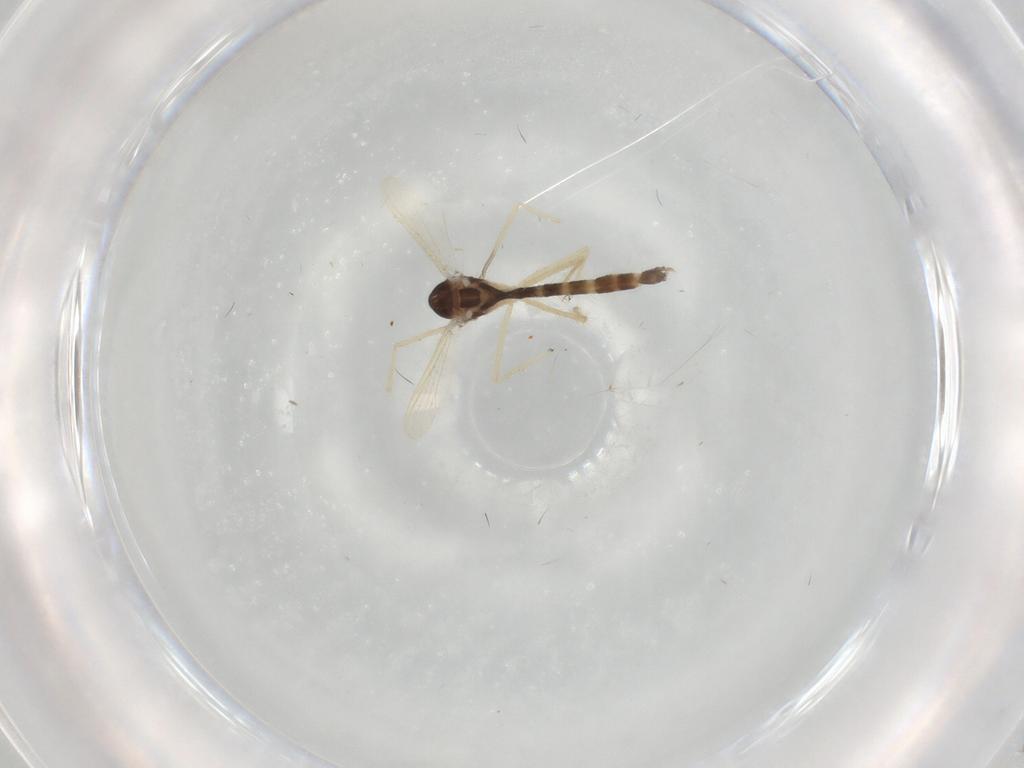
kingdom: Animalia
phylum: Arthropoda
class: Insecta
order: Diptera
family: Chironomidae
